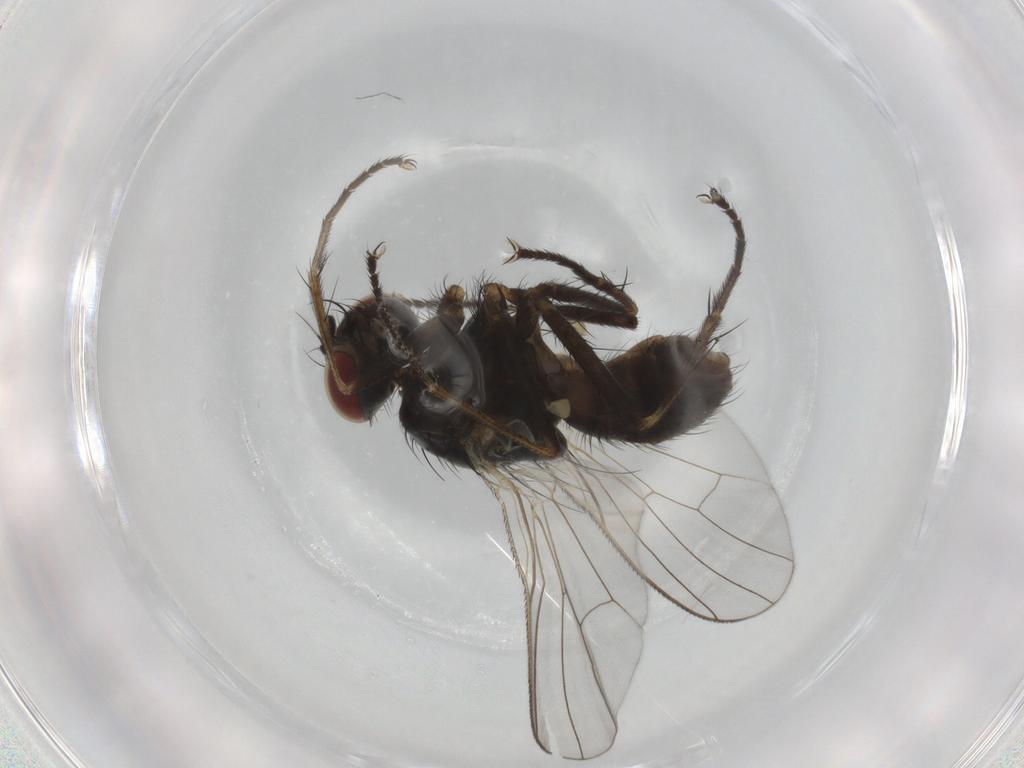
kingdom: Animalia
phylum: Arthropoda
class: Insecta
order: Diptera
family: Muscidae
